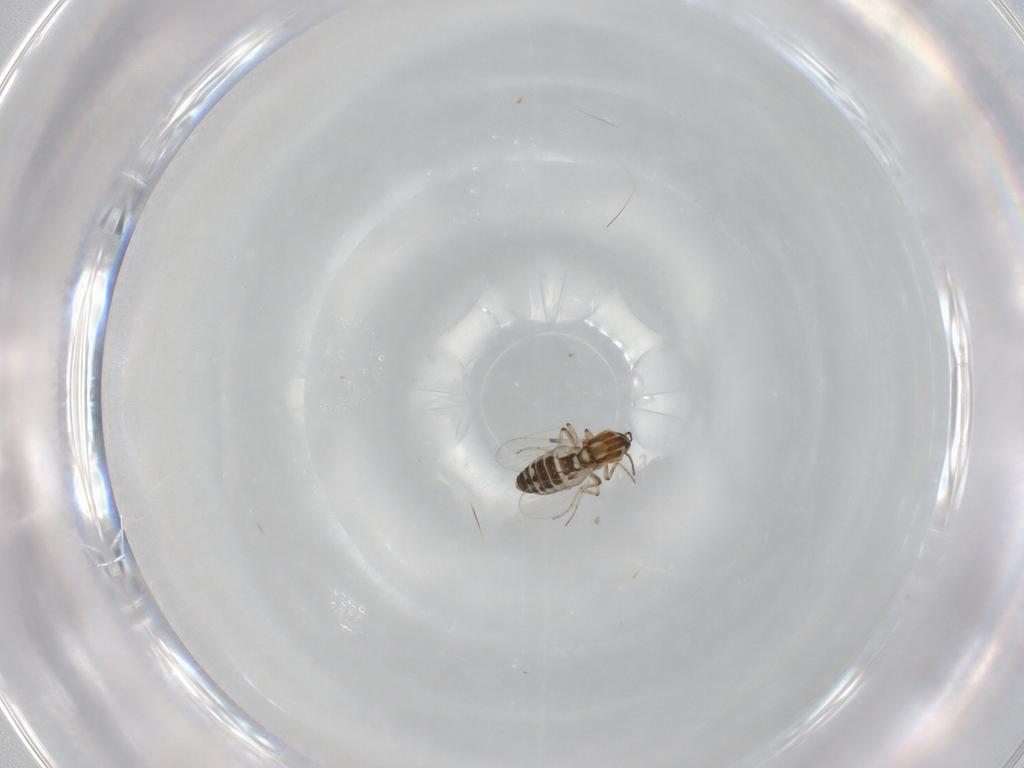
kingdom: Animalia
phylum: Arthropoda
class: Insecta
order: Diptera
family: Ceratopogonidae
